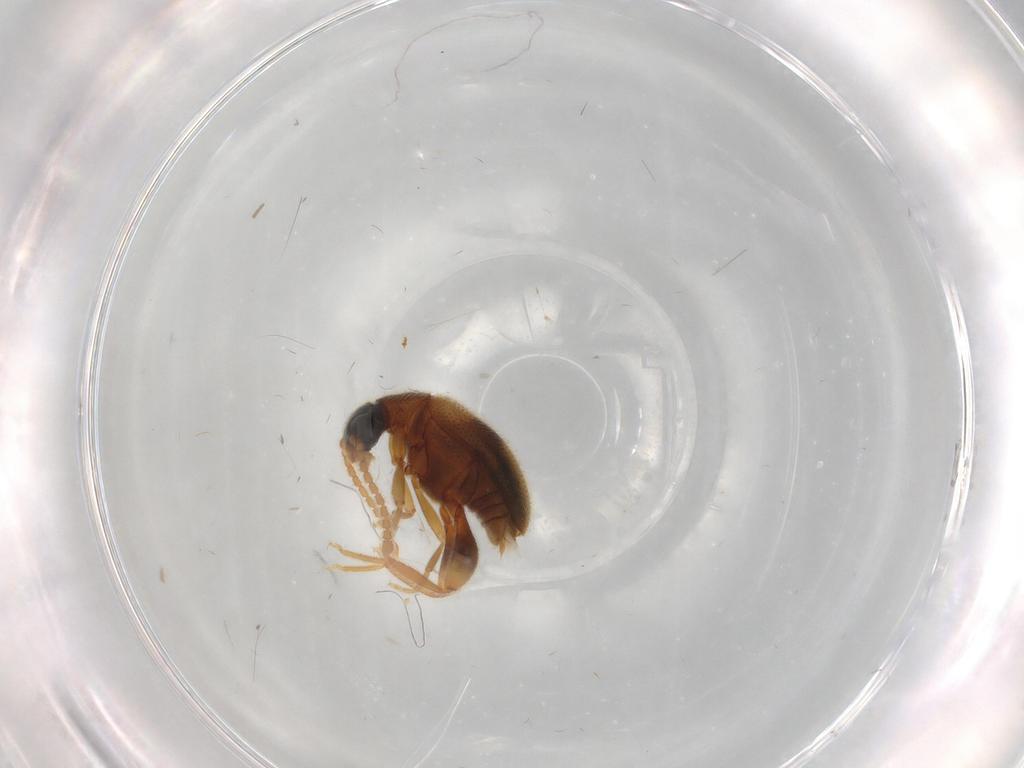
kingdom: Animalia
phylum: Arthropoda
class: Insecta
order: Coleoptera
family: Aderidae
